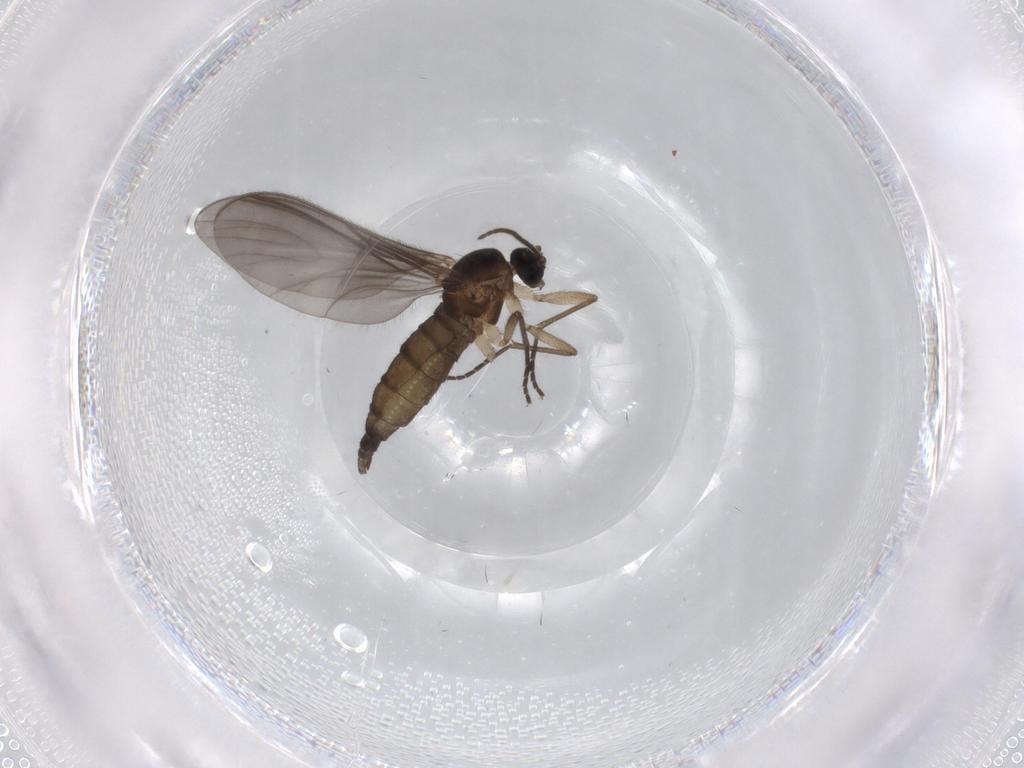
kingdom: Animalia
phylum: Arthropoda
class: Insecta
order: Diptera
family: Sciaridae
